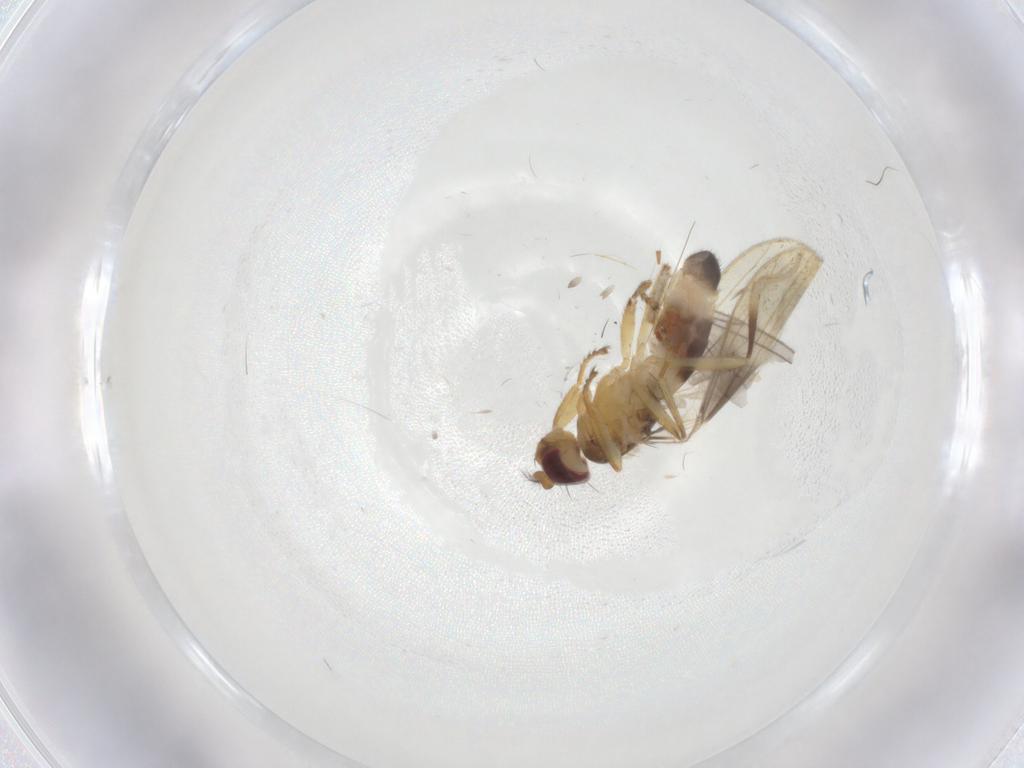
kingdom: Animalia
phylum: Arthropoda
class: Insecta
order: Diptera
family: Periscelididae
